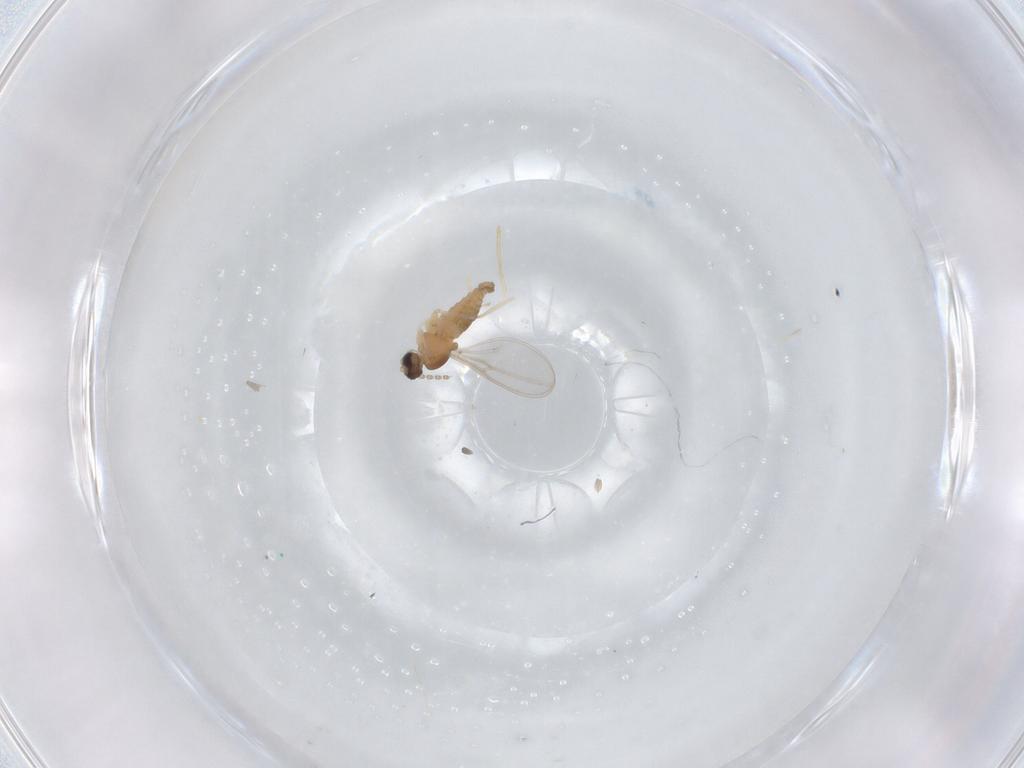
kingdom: Animalia
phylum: Arthropoda
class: Insecta
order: Diptera
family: Cecidomyiidae
